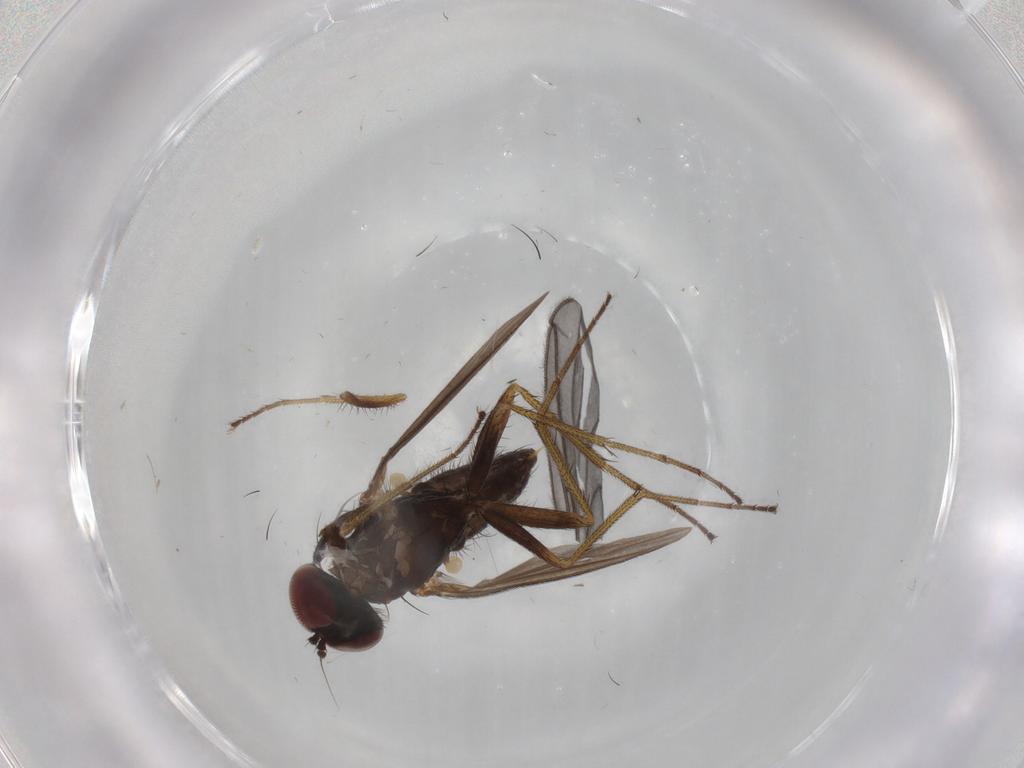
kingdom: Animalia
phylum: Arthropoda
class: Insecta
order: Diptera
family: Dolichopodidae
